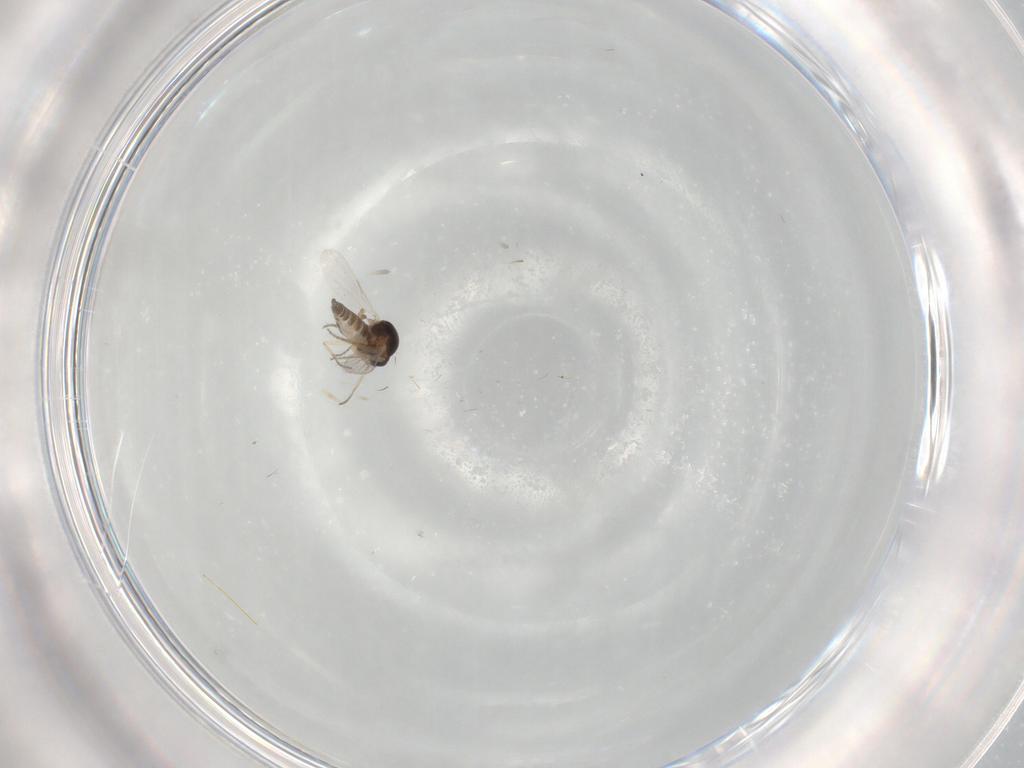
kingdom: Animalia
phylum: Arthropoda
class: Insecta
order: Diptera
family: Ceratopogonidae
